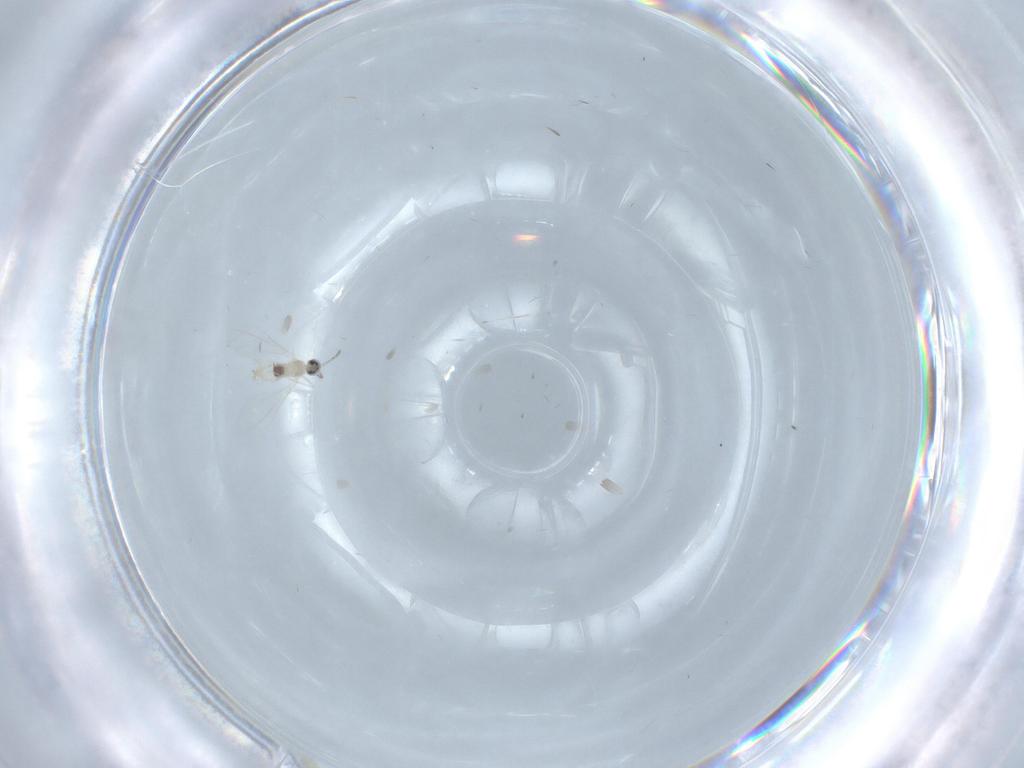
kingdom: Animalia
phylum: Arthropoda
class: Insecta
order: Diptera
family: Cecidomyiidae
